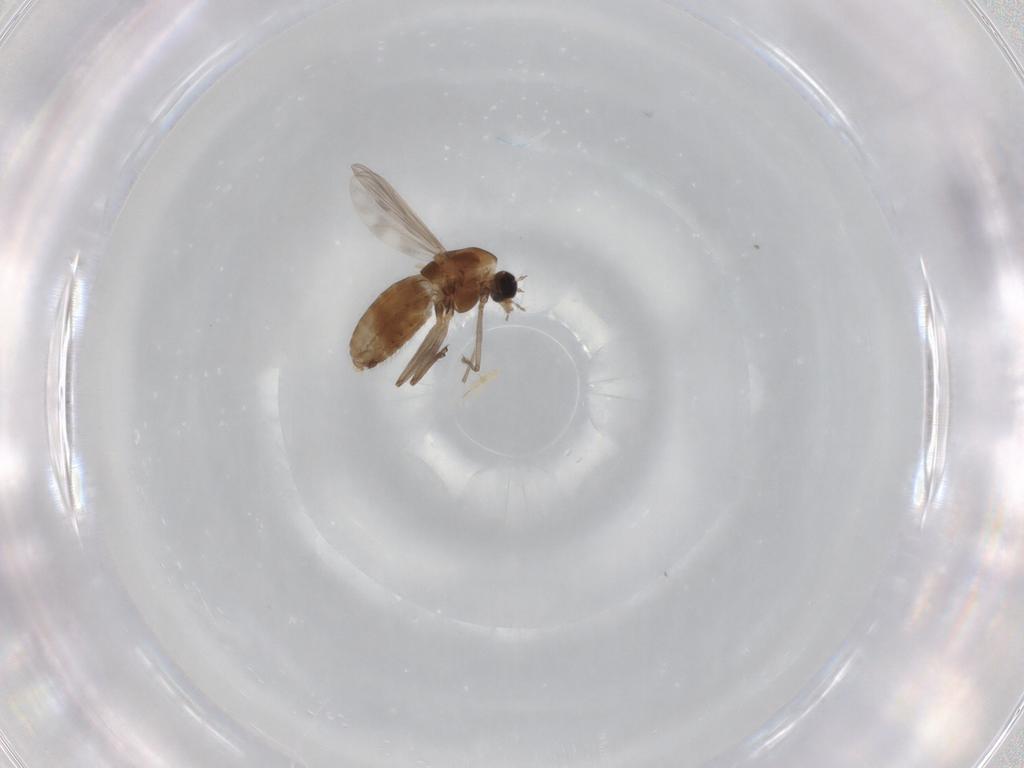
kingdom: Animalia
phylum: Arthropoda
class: Insecta
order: Diptera
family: Chironomidae
